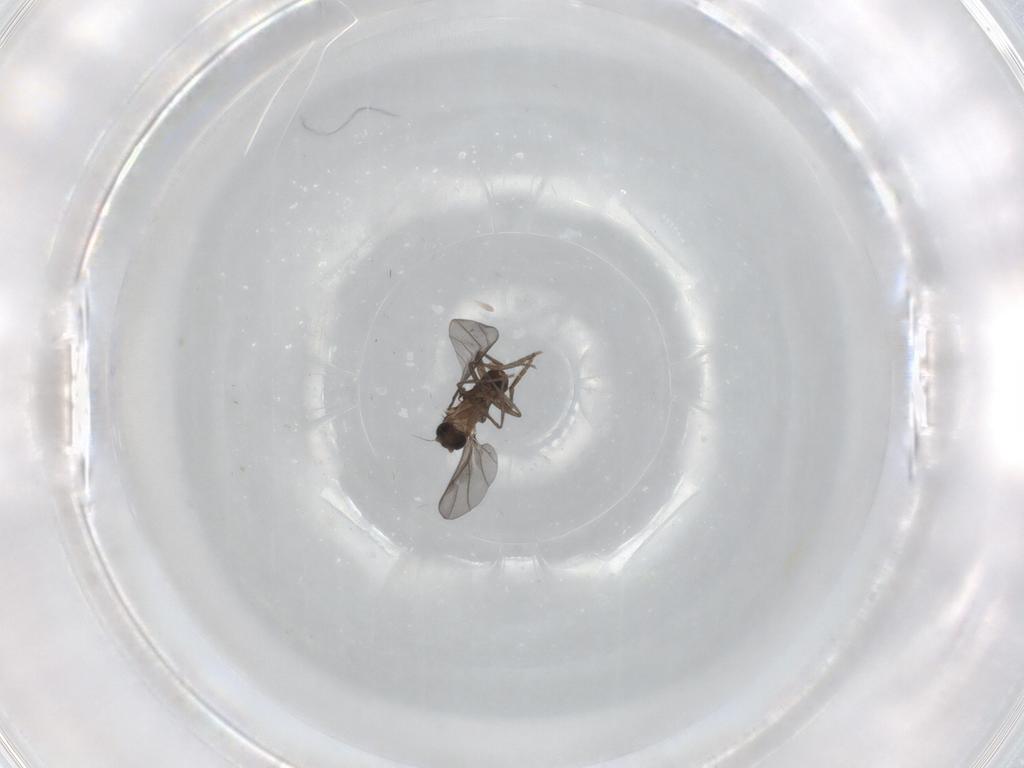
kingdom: Animalia
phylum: Arthropoda
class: Insecta
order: Diptera
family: Ceratopogonidae
